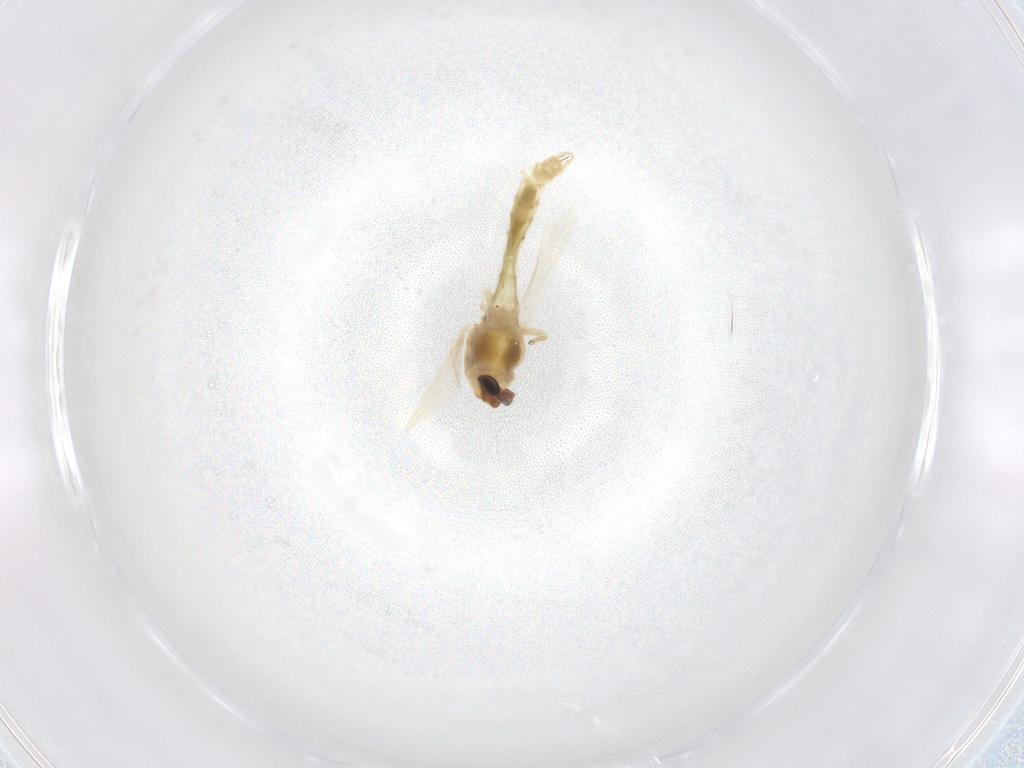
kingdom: Animalia
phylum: Arthropoda
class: Insecta
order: Diptera
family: Chironomidae
